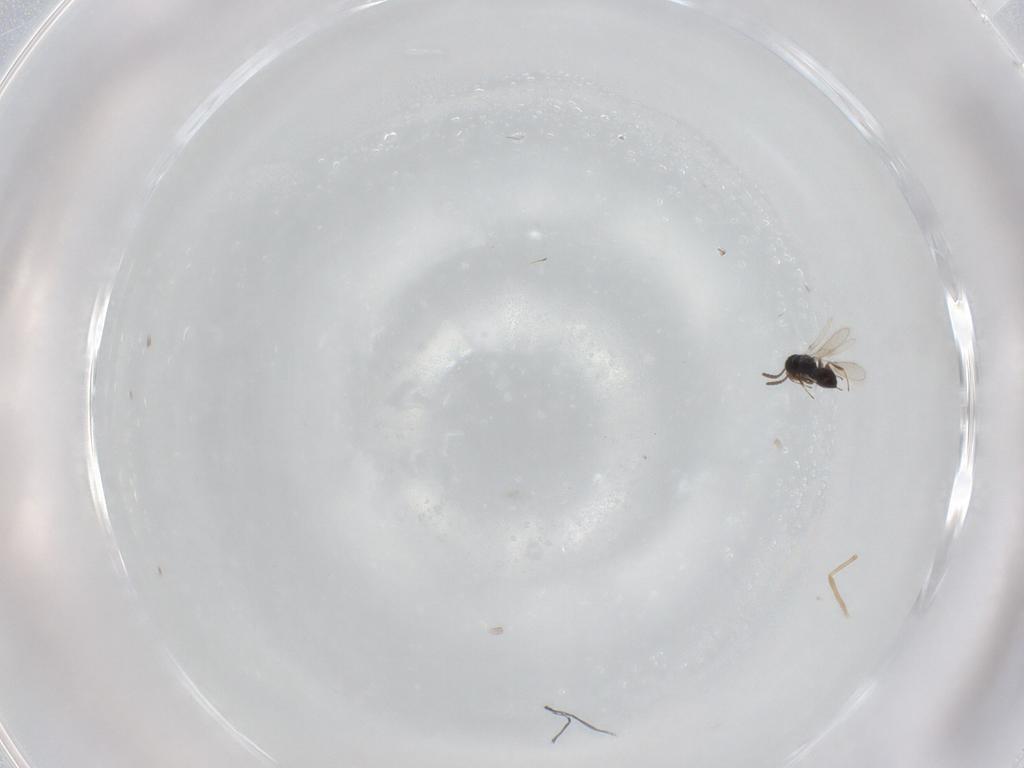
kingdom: Animalia
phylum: Arthropoda
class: Insecta
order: Hymenoptera
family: Scelionidae
